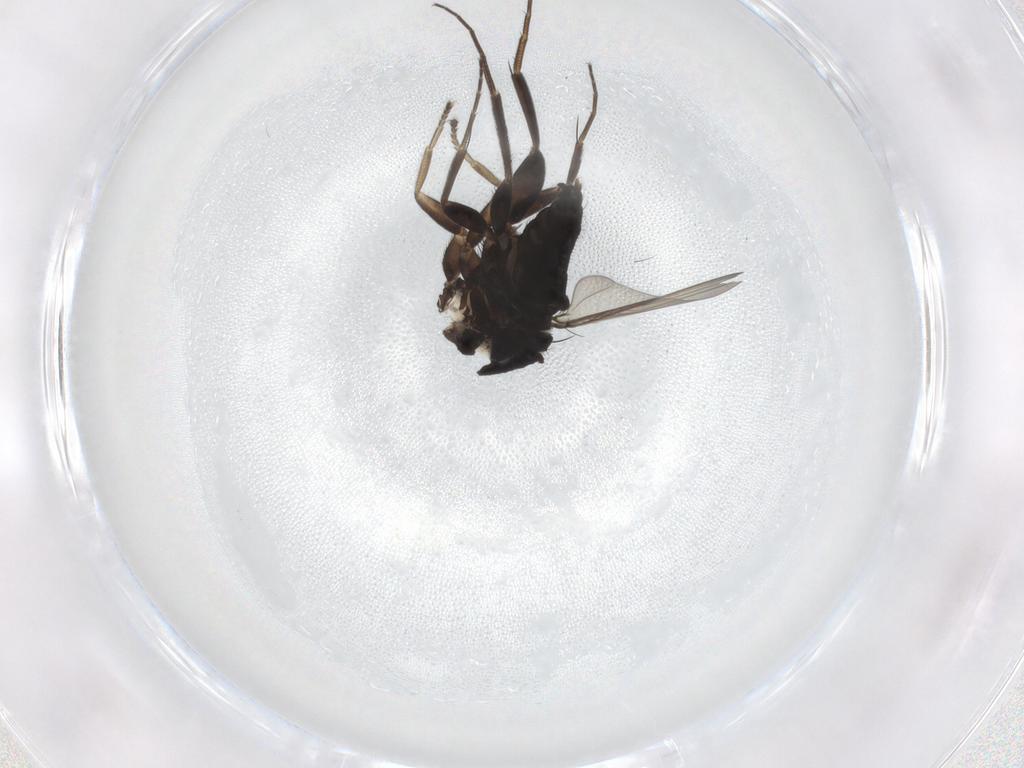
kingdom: Animalia
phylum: Arthropoda
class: Insecta
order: Diptera
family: Phoridae
